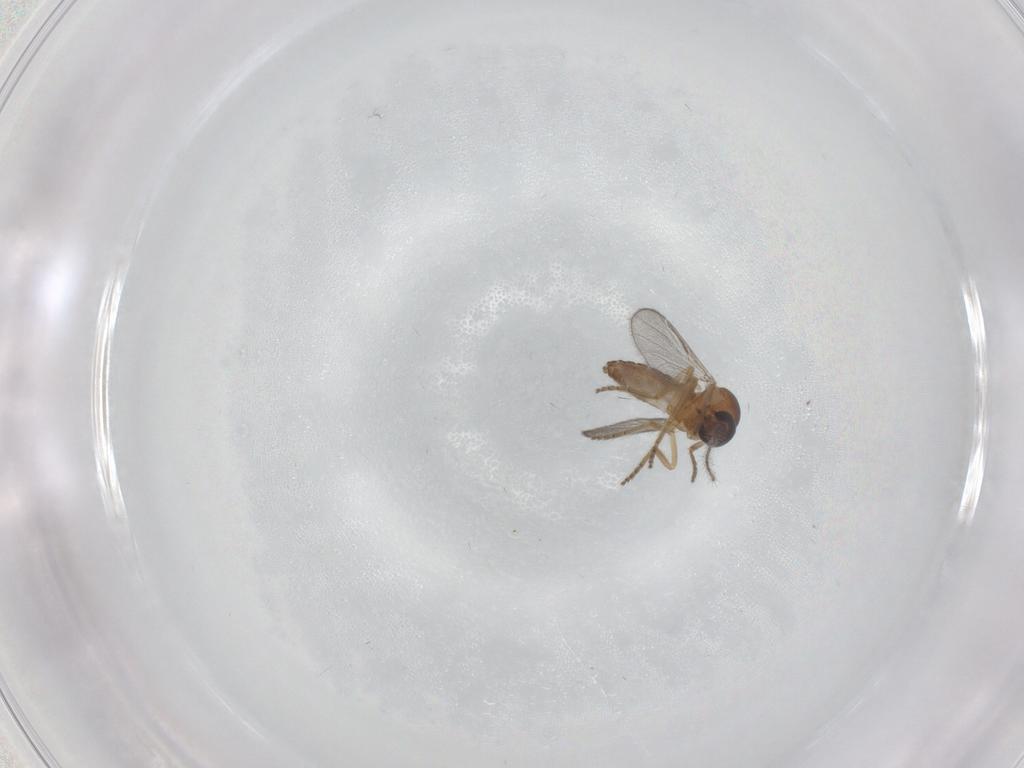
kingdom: Animalia
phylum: Arthropoda
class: Insecta
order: Diptera
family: Ceratopogonidae
